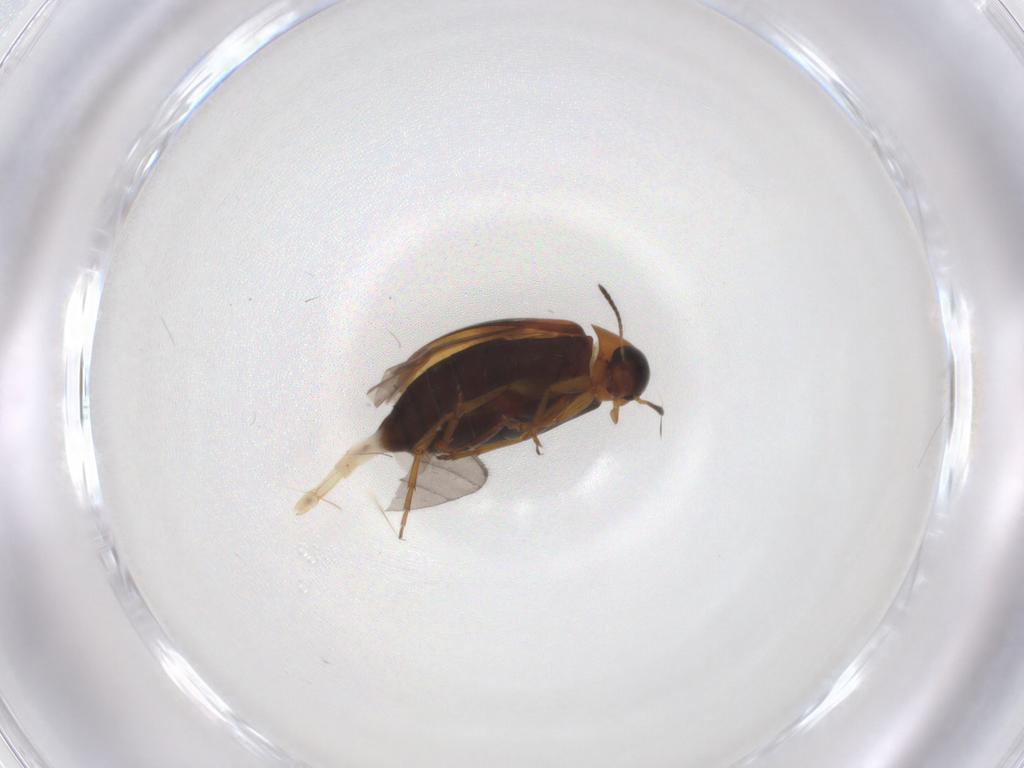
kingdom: Animalia
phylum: Arthropoda
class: Insecta
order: Coleoptera
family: Scraptiidae
